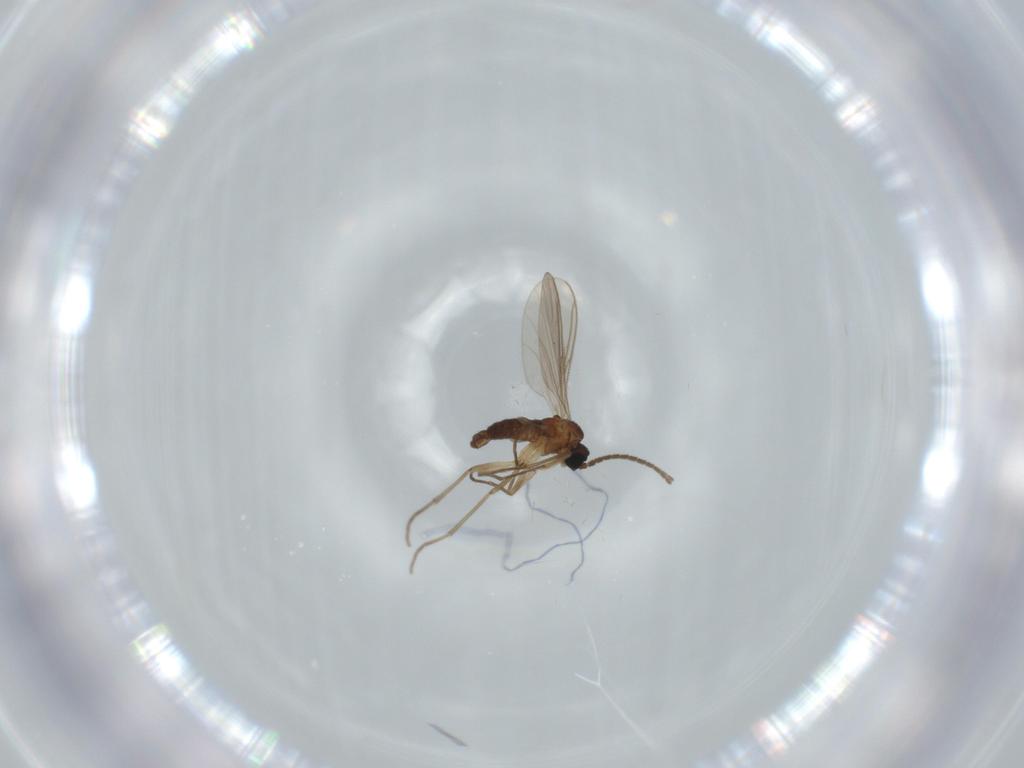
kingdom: Animalia
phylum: Arthropoda
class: Insecta
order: Diptera
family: Sciaridae
